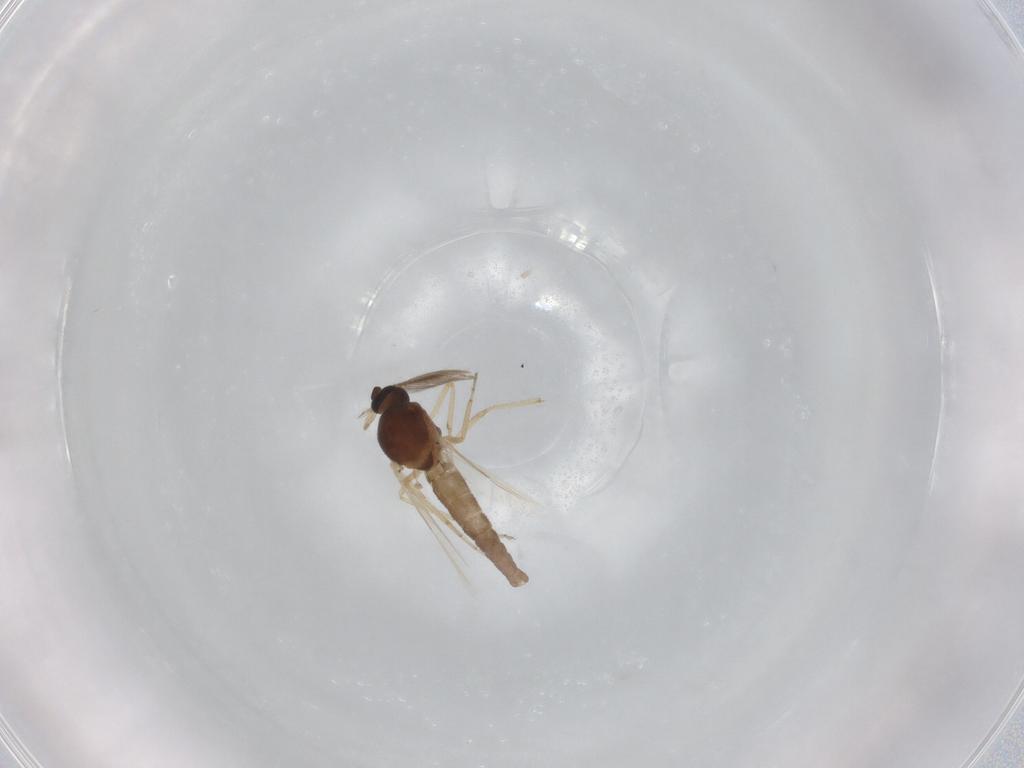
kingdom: Animalia
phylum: Arthropoda
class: Insecta
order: Diptera
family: Ceratopogonidae
